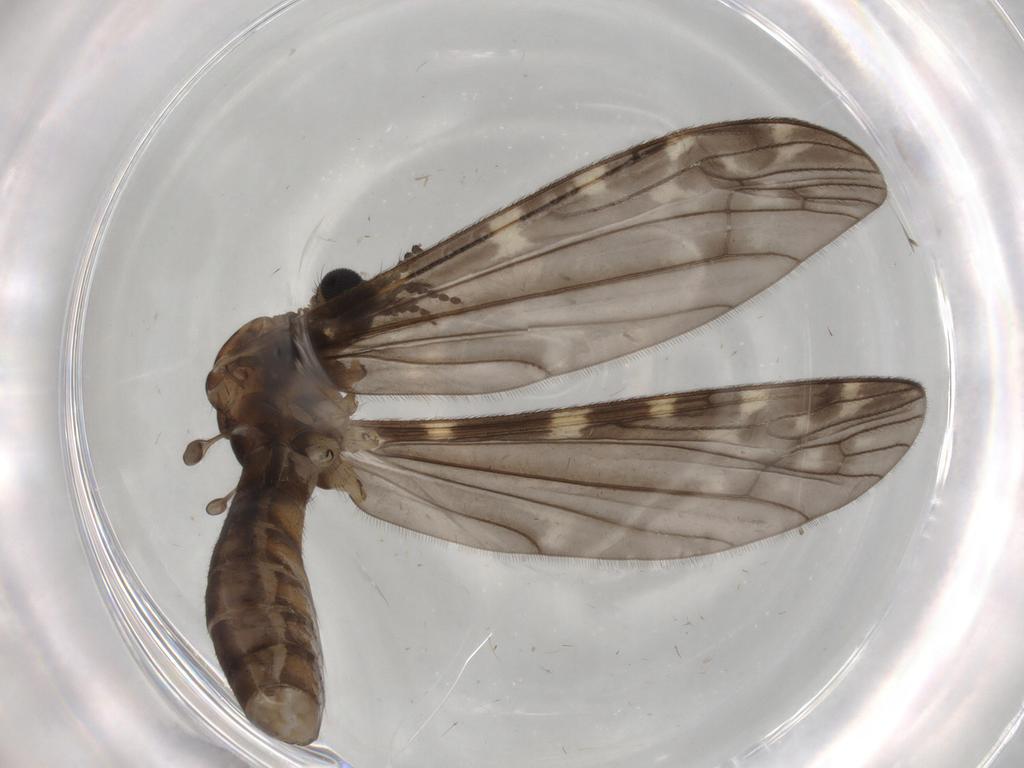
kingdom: Animalia
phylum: Arthropoda
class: Insecta
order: Diptera
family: Limoniidae
